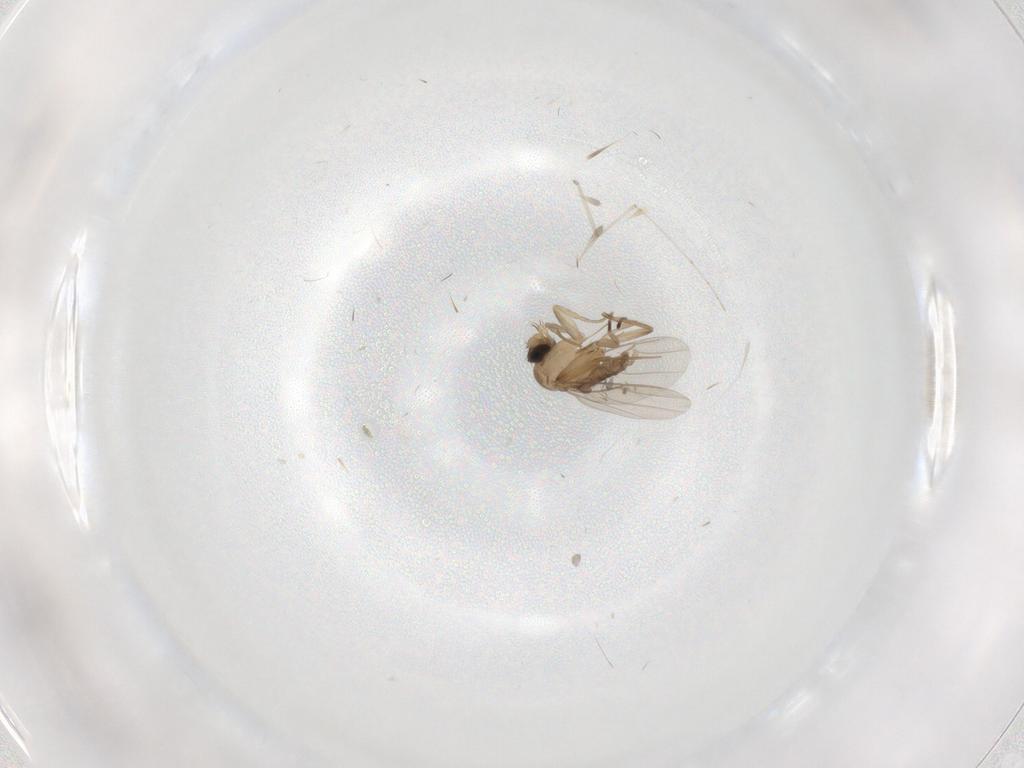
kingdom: Animalia
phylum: Arthropoda
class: Insecta
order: Diptera
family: Phoridae
